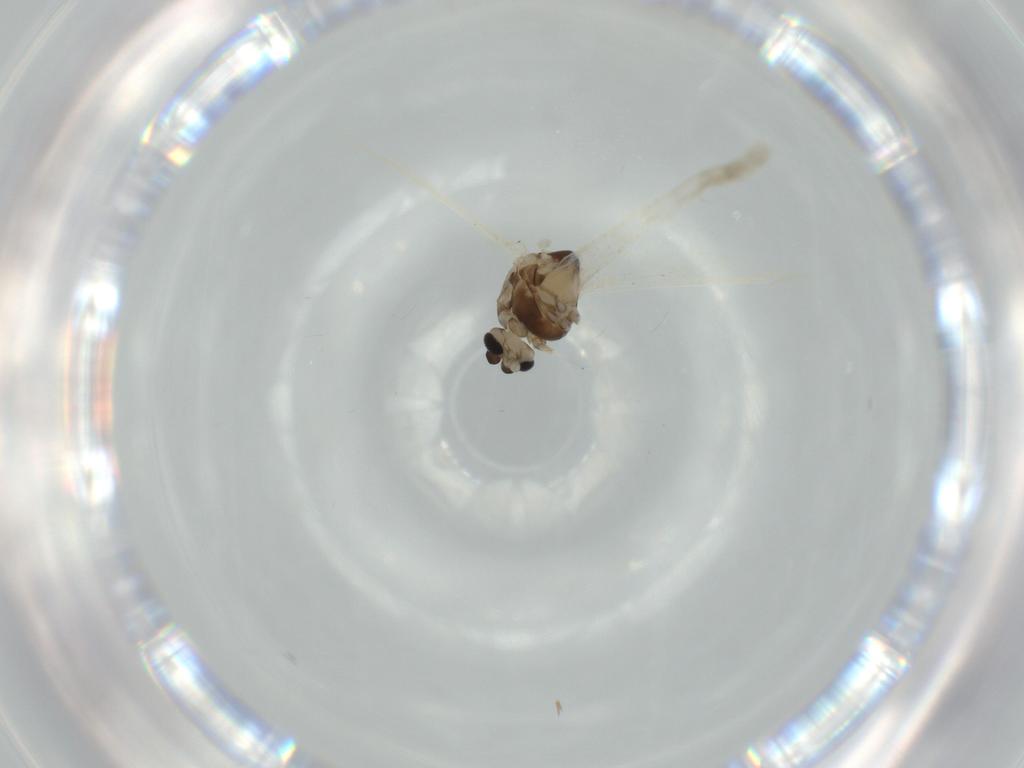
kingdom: Animalia
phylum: Arthropoda
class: Insecta
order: Diptera
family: Chironomidae
